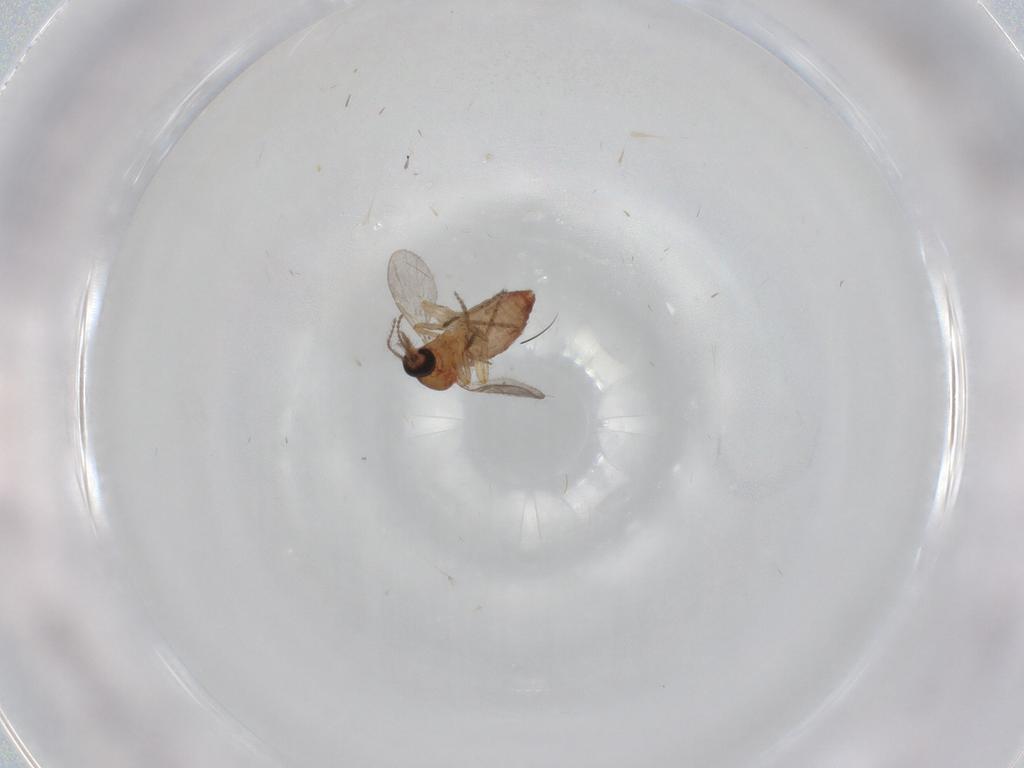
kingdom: Animalia
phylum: Arthropoda
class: Insecta
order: Diptera
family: Ceratopogonidae
